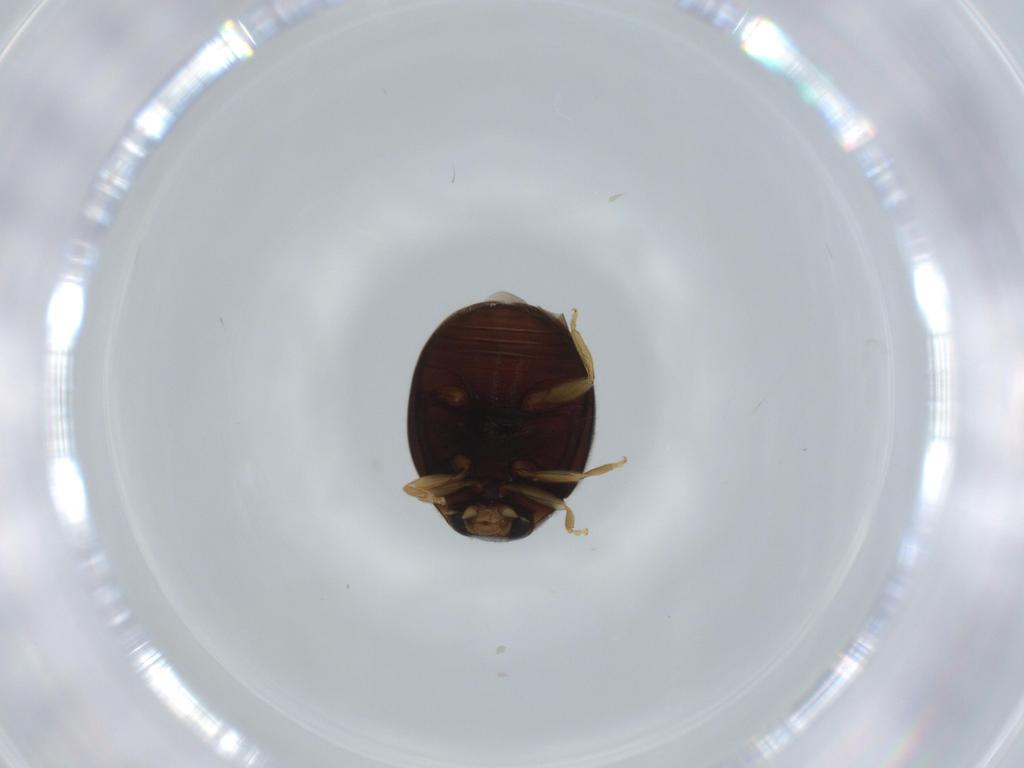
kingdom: Animalia
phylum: Arthropoda
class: Insecta
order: Coleoptera
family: Coccinellidae
